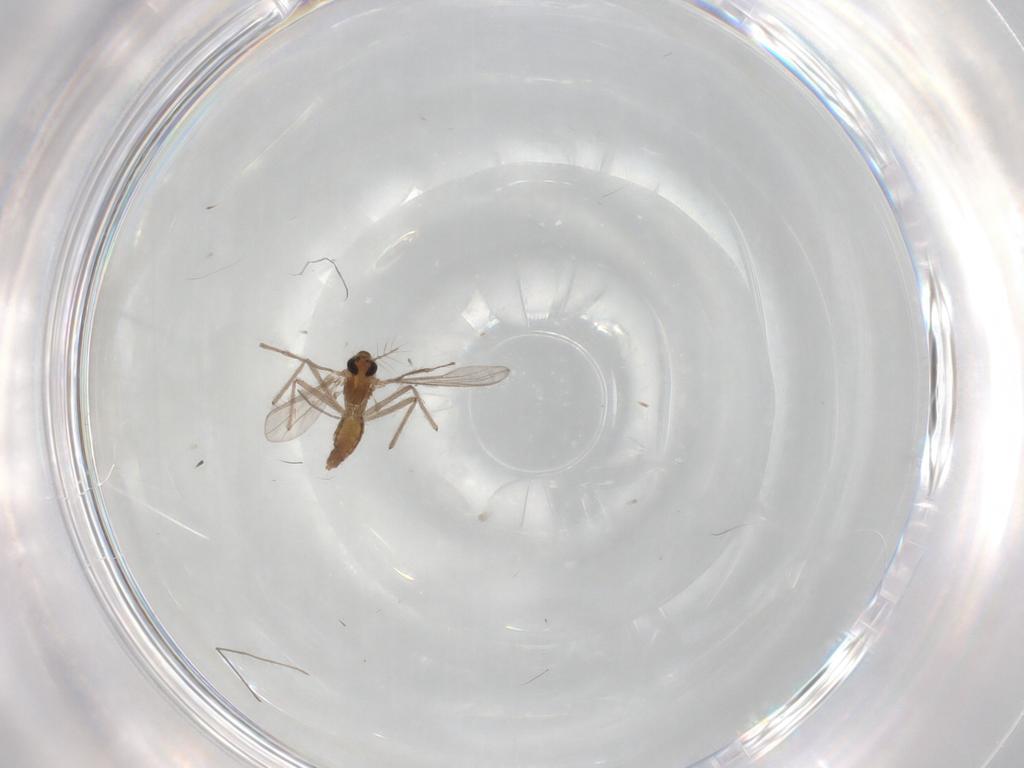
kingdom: Animalia
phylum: Arthropoda
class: Insecta
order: Diptera
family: Chironomidae
